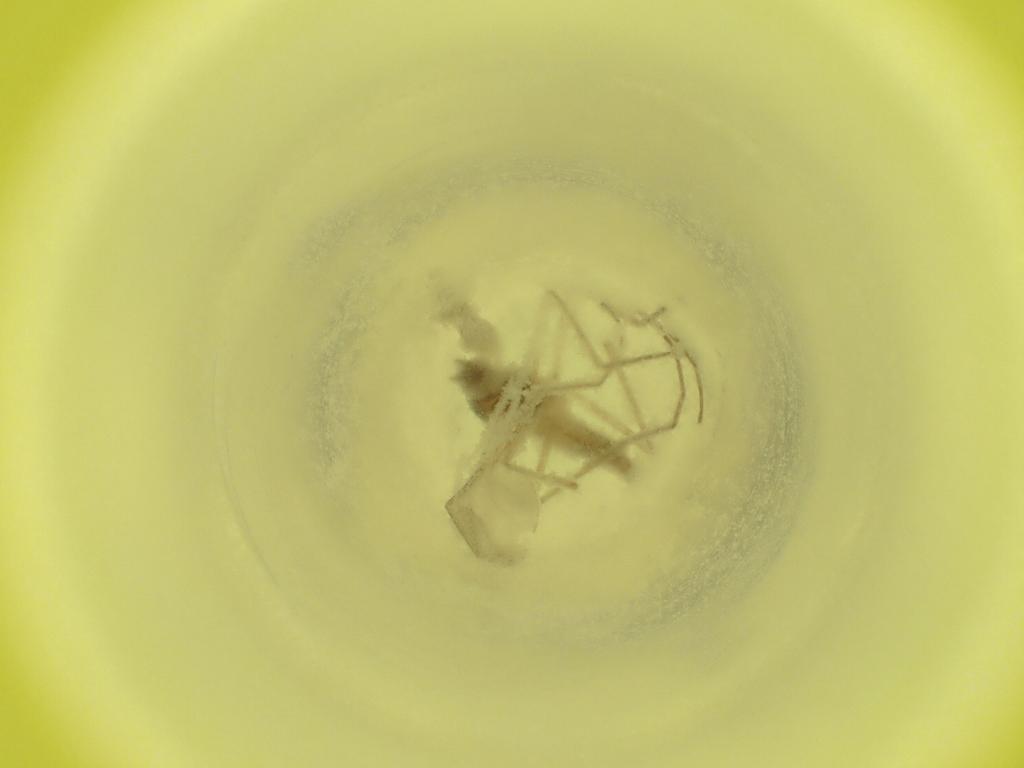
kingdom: Animalia
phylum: Arthropoda
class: Insecta
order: Diptera
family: Cecidomyiidae
